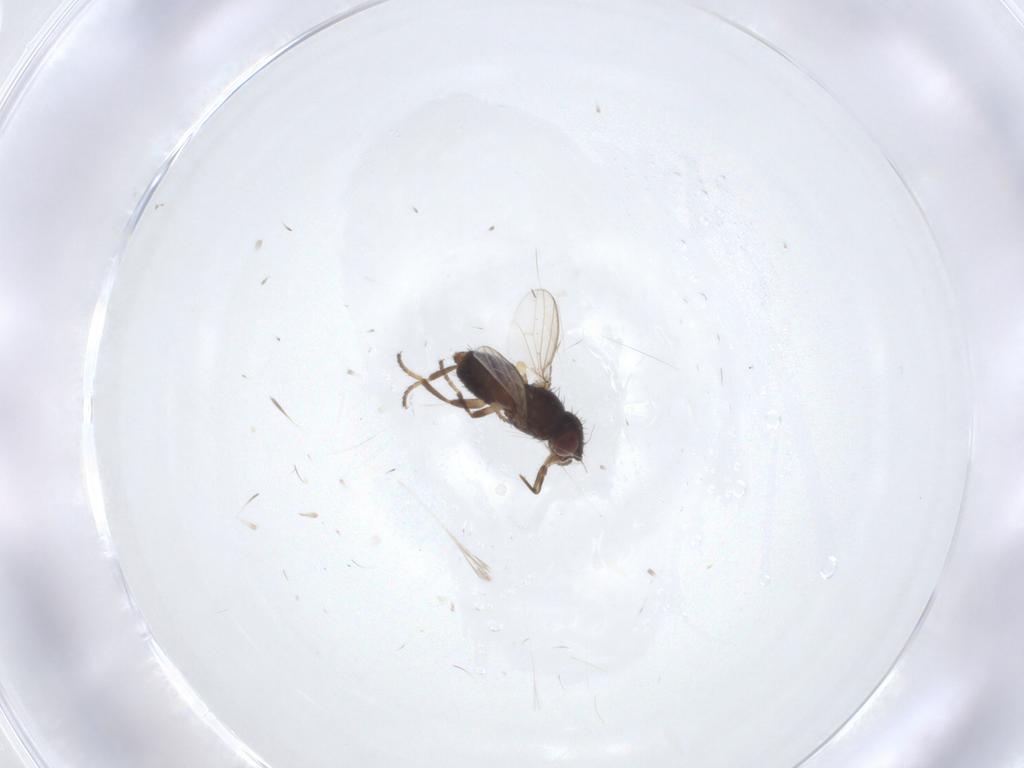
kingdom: Animalia
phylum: Arthropoda
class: Insecta
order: Diptera
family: Milichiidae
